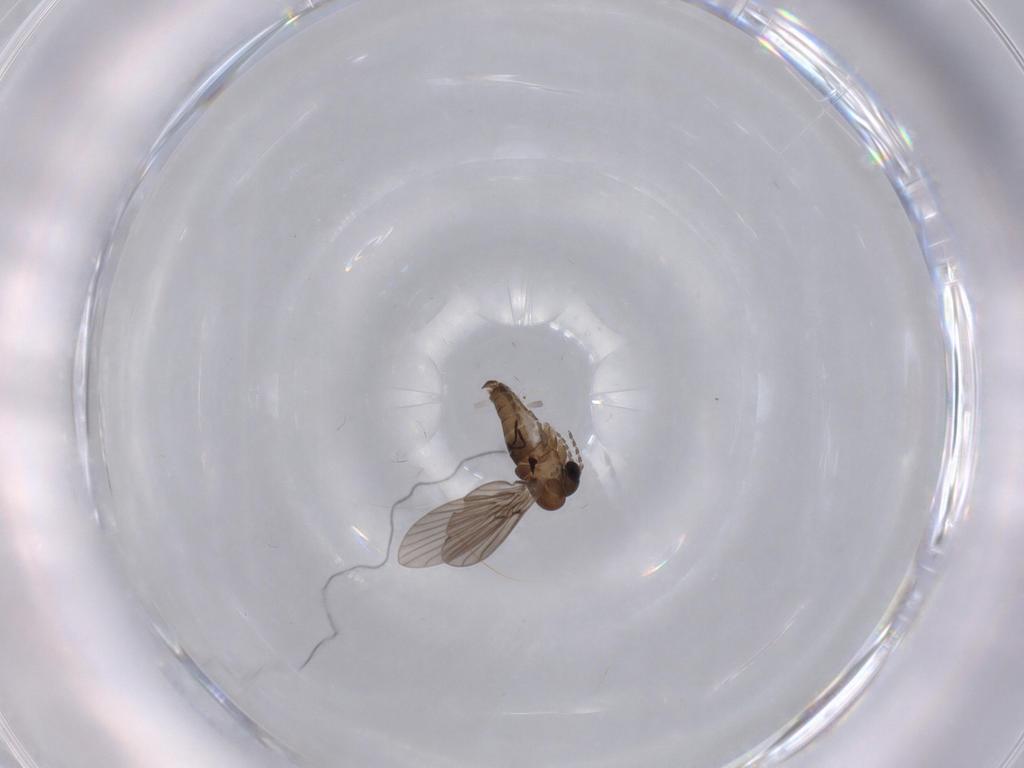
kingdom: Animalia
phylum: Arthropoda
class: Insecta
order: Diptera
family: Psychodidae
